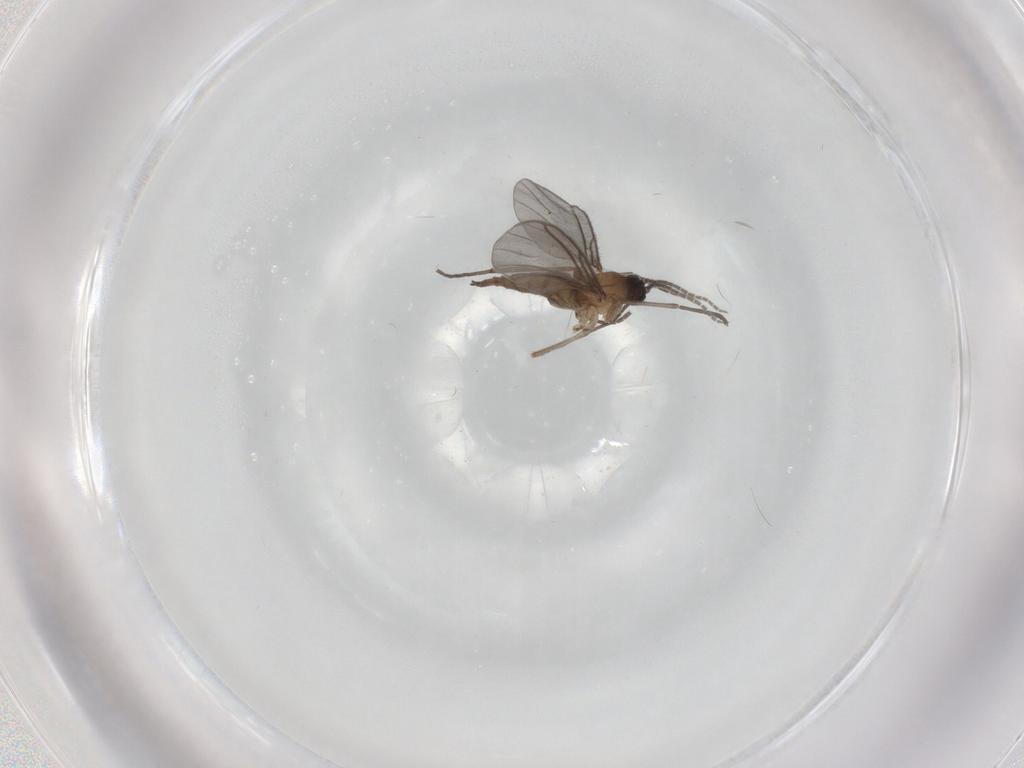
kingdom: Animalia
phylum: Arthropoda
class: Insecta
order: Diptera
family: Sciaridae
